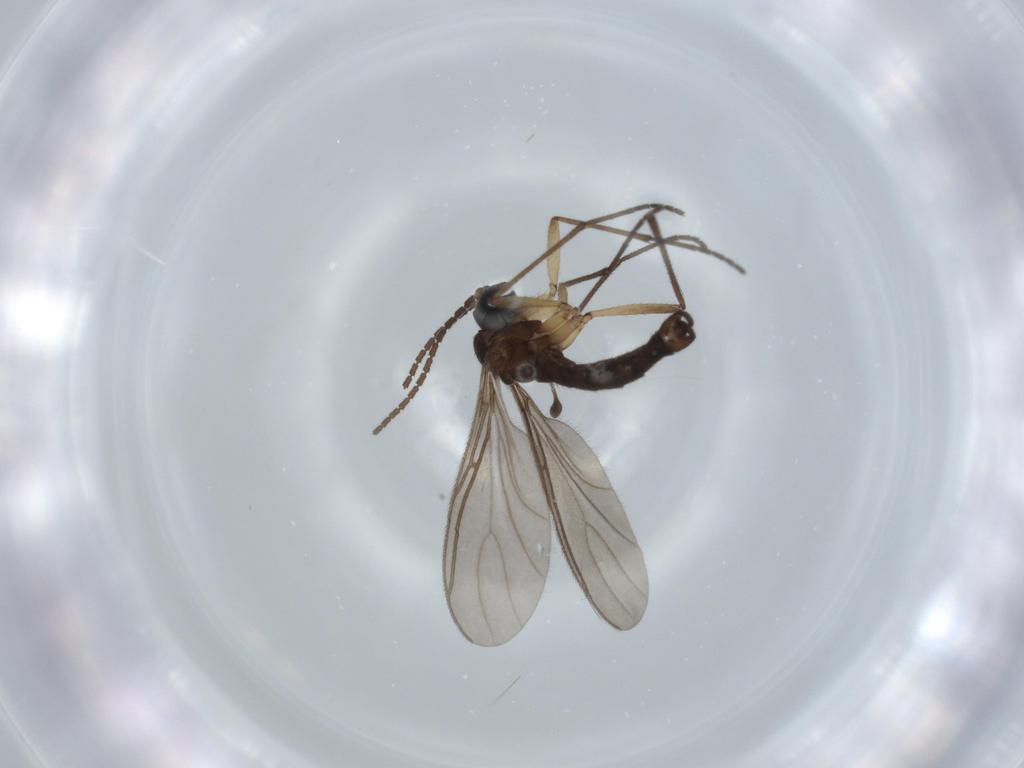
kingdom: Animalia
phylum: Arthropoda
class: Insecta
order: Diptera
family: Sciaridae
